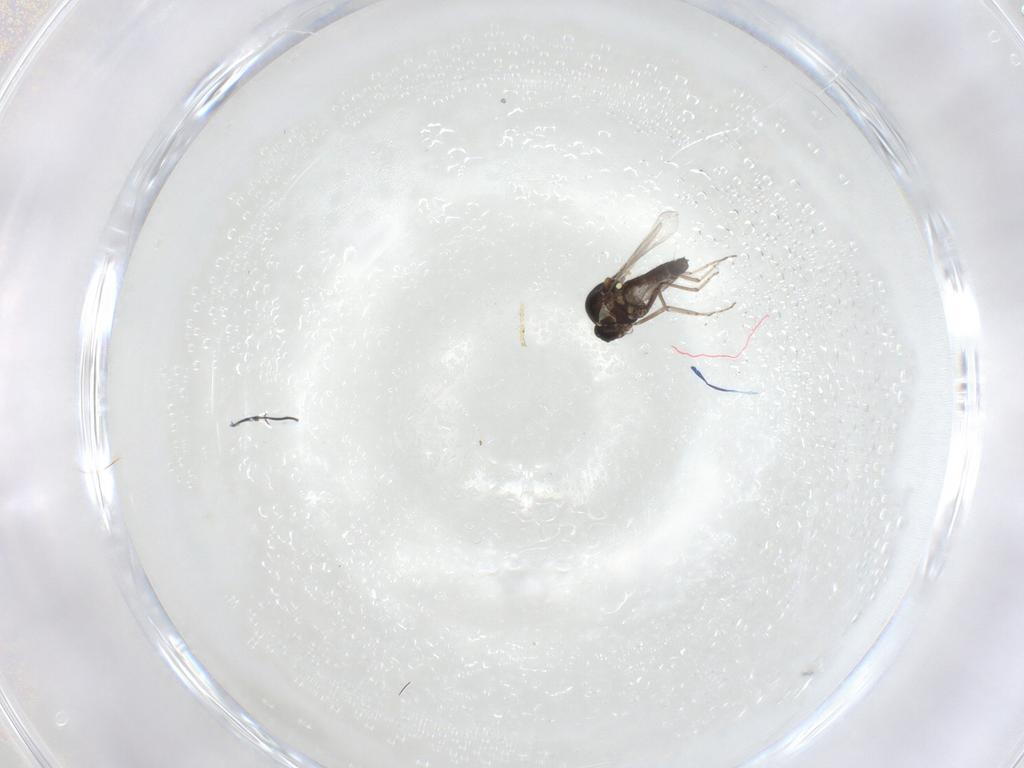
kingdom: Animalia
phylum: Arthropoda
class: Insecta
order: Diptera
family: Ceratopogonidae
